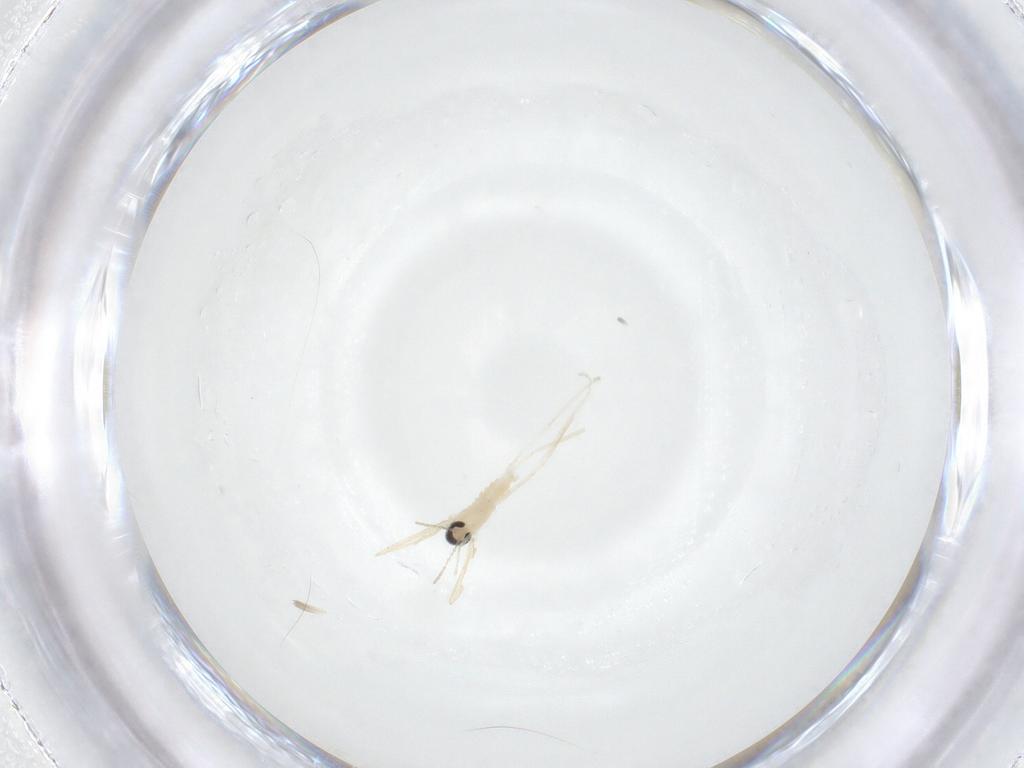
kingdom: Animalia
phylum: Arthropoda
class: Insecta
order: Diptera
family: Cecidomyiidae
